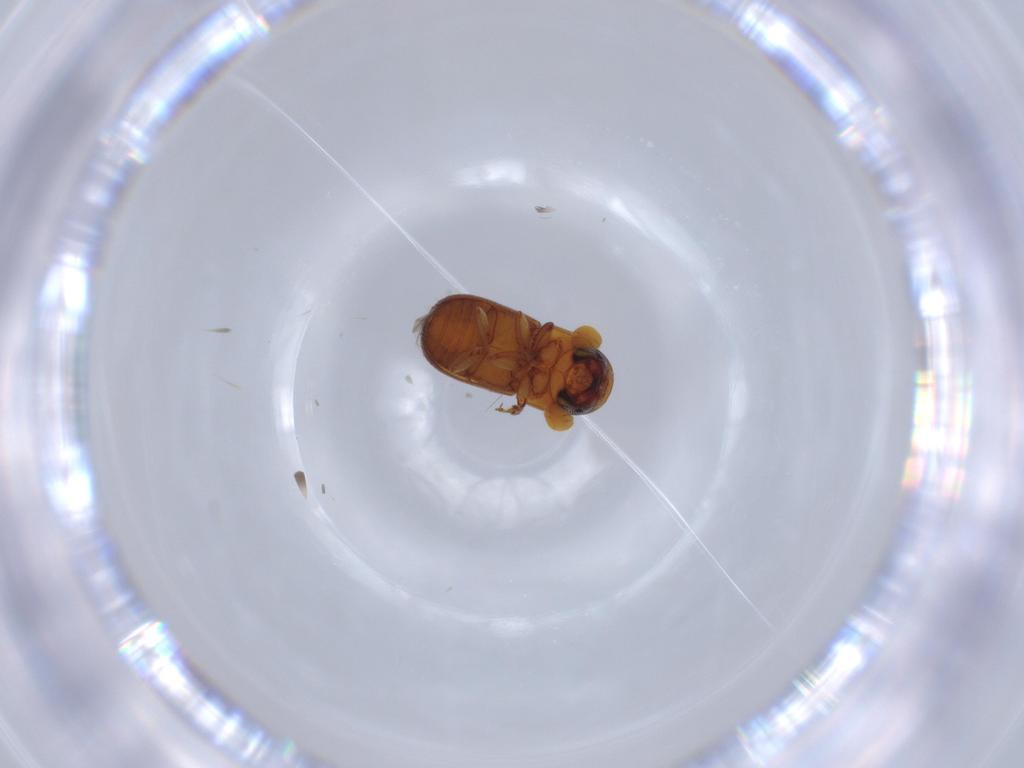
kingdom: Animalia
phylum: Arthropoda
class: Insecta
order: Coleoptera
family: Curculionidae
